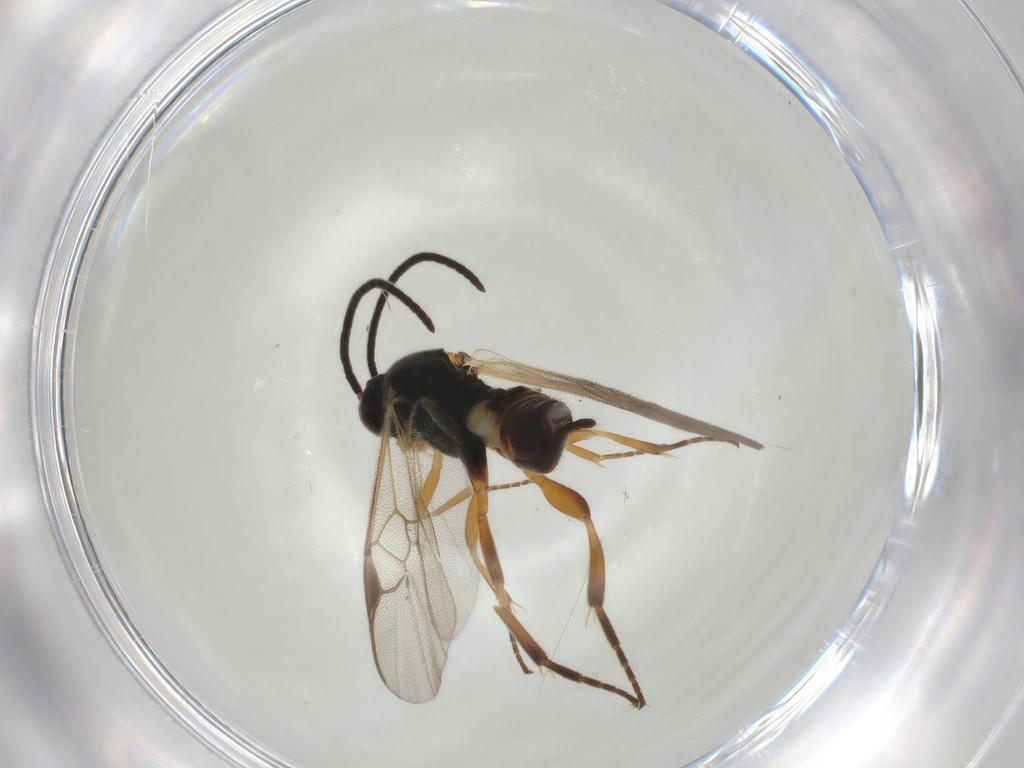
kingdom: Animalia
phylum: Arthropoda
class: Insecta
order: Hymenoptera
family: Braconidae
